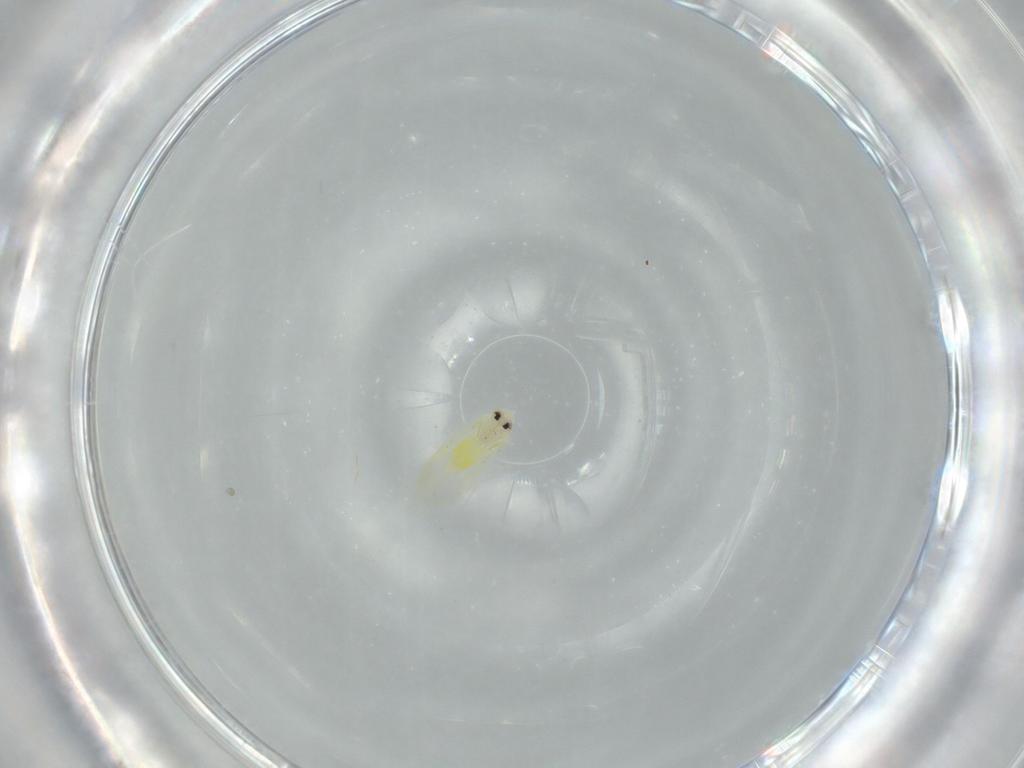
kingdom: Animalia
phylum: Arthropoda
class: Insecta
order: Hemiptera
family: Aleyrodidae
